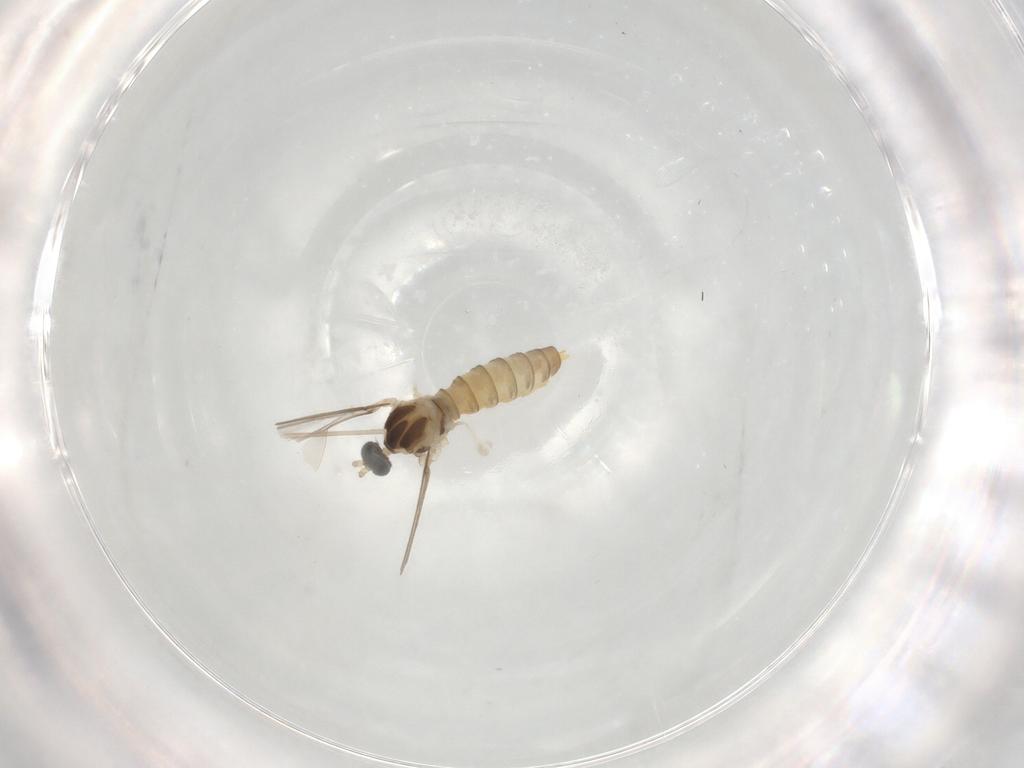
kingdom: Animalia
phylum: Arthropoda
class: Insecta
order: Diptera
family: Cecidomyiidae
